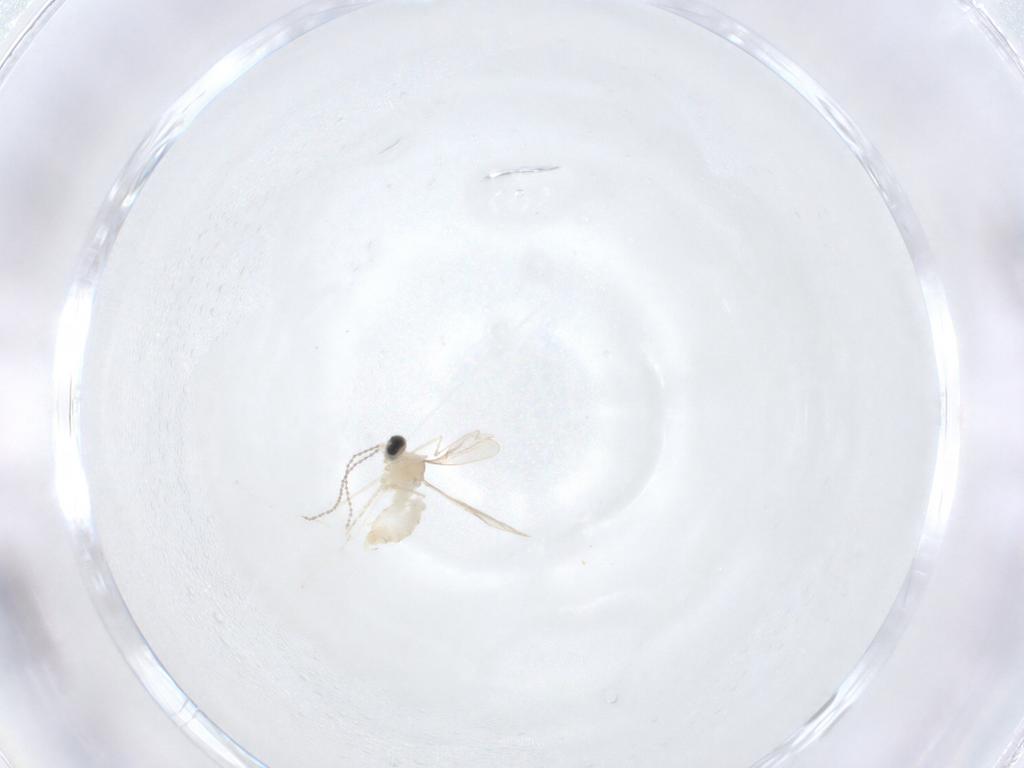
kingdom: Animalia
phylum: Arthropoda
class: Insecta
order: Diptera
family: Cecidomyiidae
